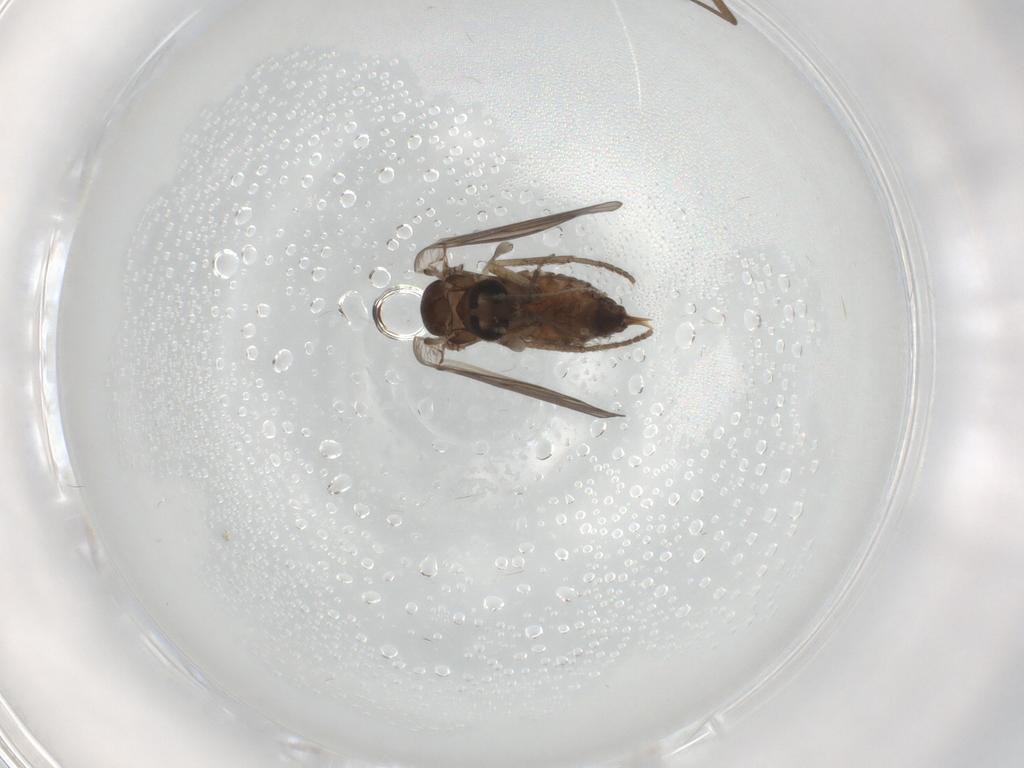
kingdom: Animalia
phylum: Arthropoda
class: Insecta
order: Diptera
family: Psychodidae
